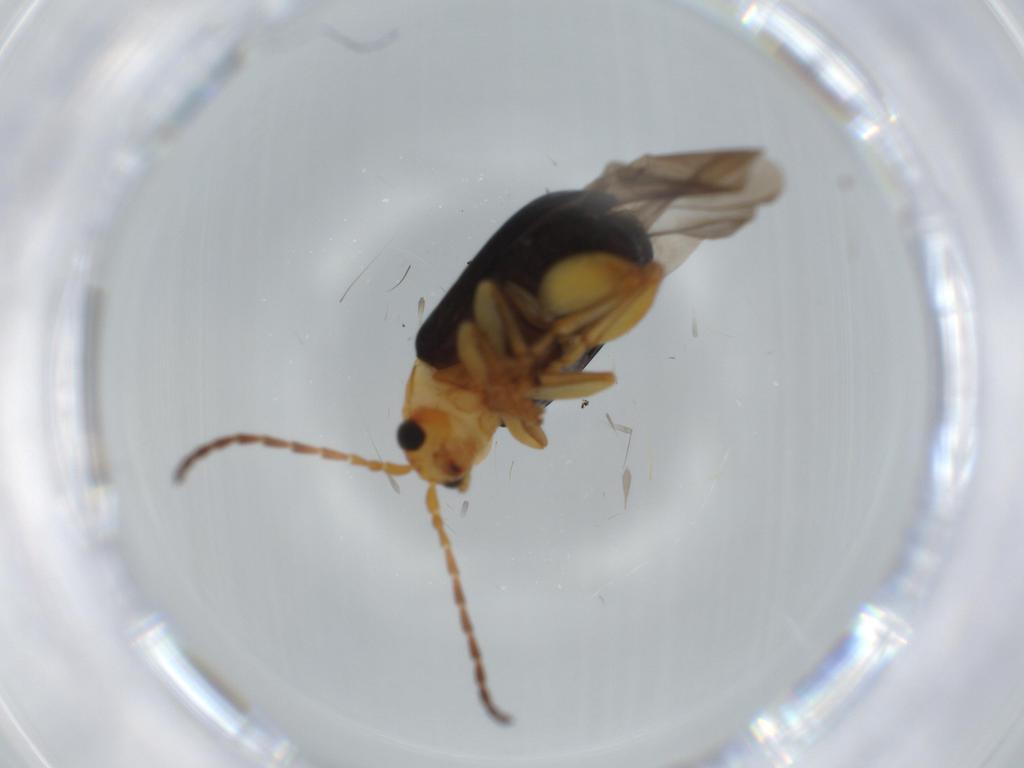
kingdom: Animalia
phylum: Arthropoda
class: Insecta
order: Coleoptera
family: Chrysomelidae
